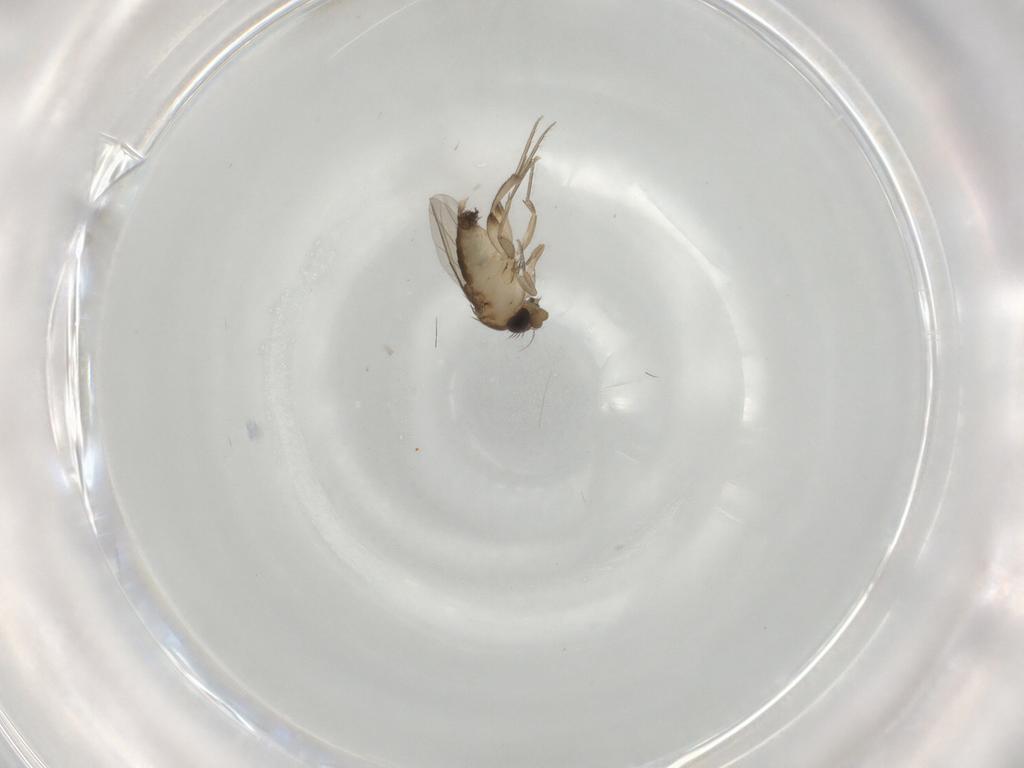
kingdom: Animalia
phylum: Arthropoda
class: Insecta
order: Diptera
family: Phoridae
